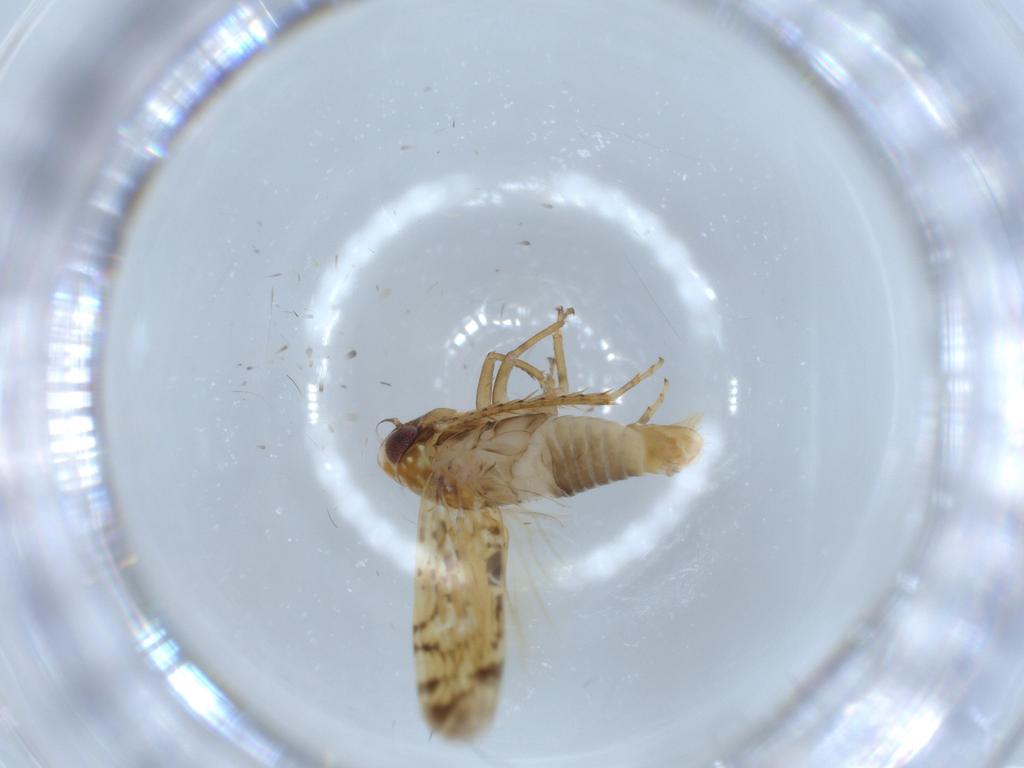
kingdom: Animalia
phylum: Arthropoda
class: Insecta
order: Hemiptera
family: Cicadellidae
